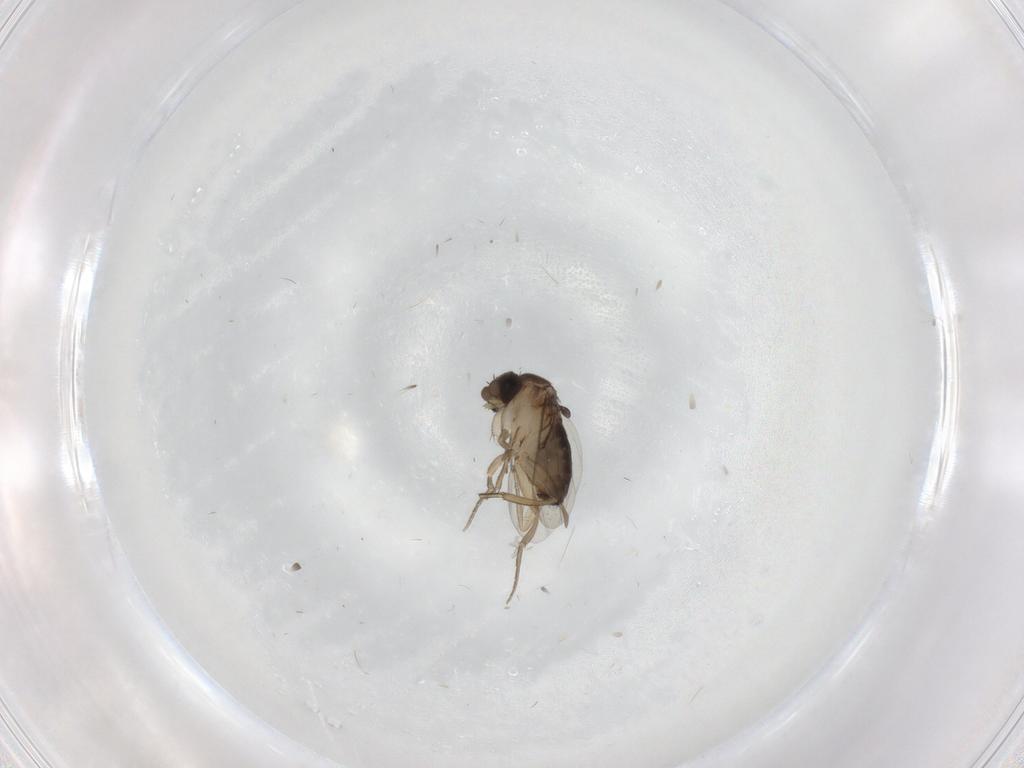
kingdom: Animalia
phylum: Arthropoda
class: Insecta
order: Diptera
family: Phoridae
